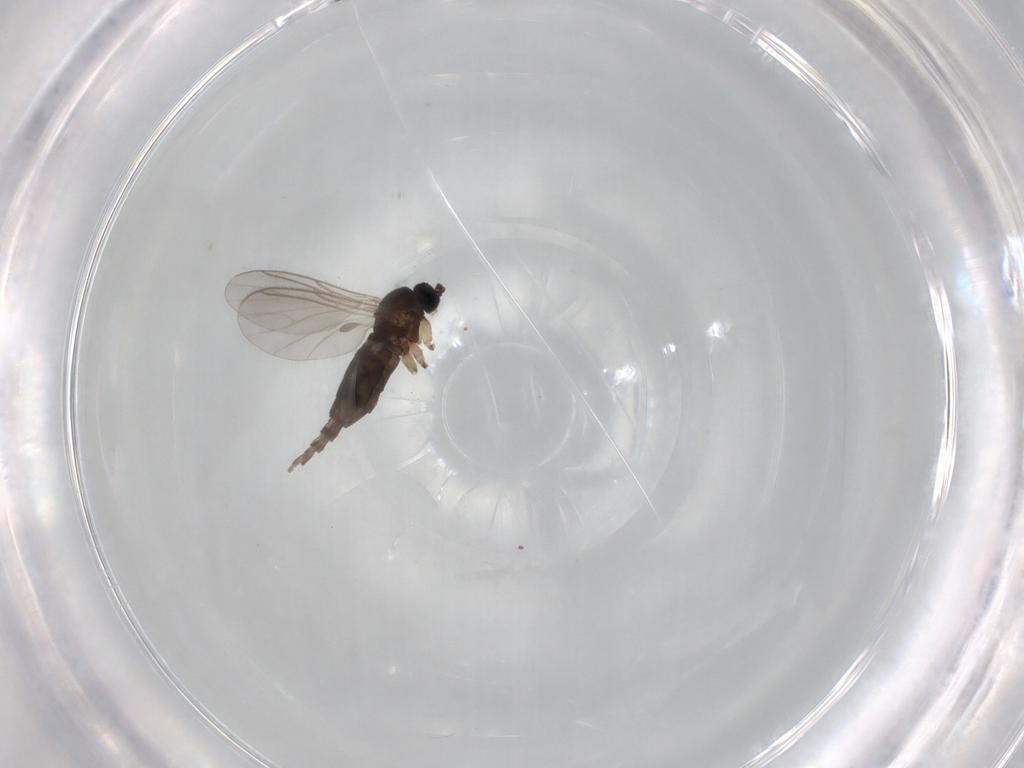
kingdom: Animalia
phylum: Arthropoda
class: Insecta
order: Diptera
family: Sciaridae
